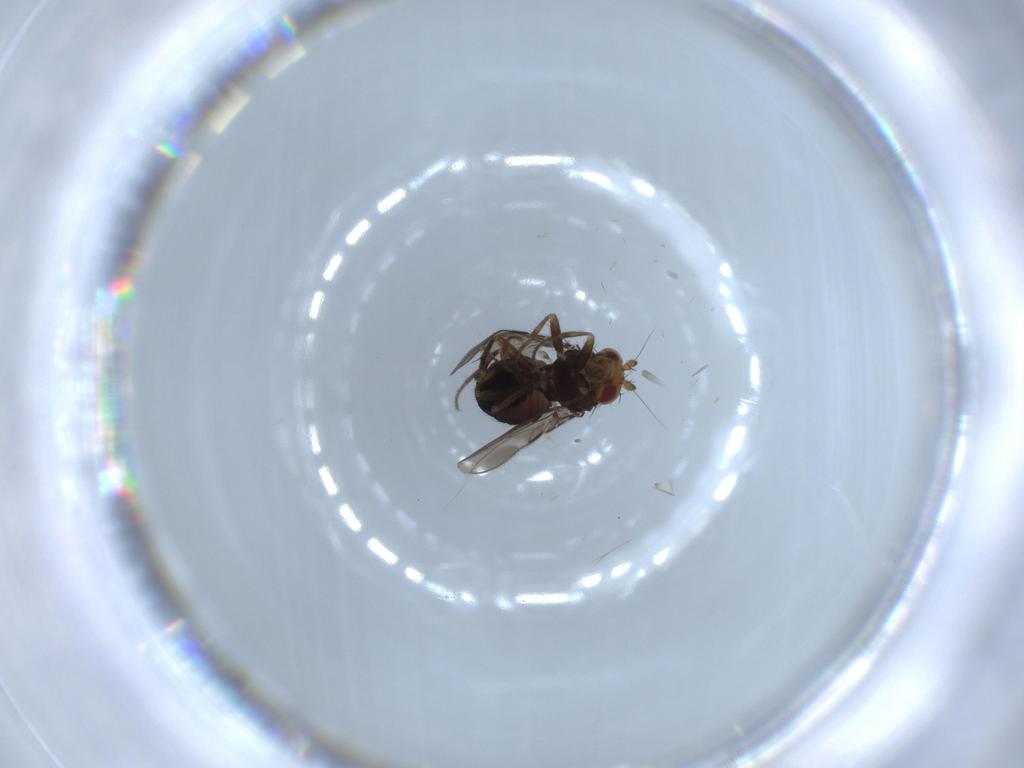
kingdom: Animalia
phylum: Arthropoda
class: Insecta
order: Diptera
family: Sphaeroceridae
